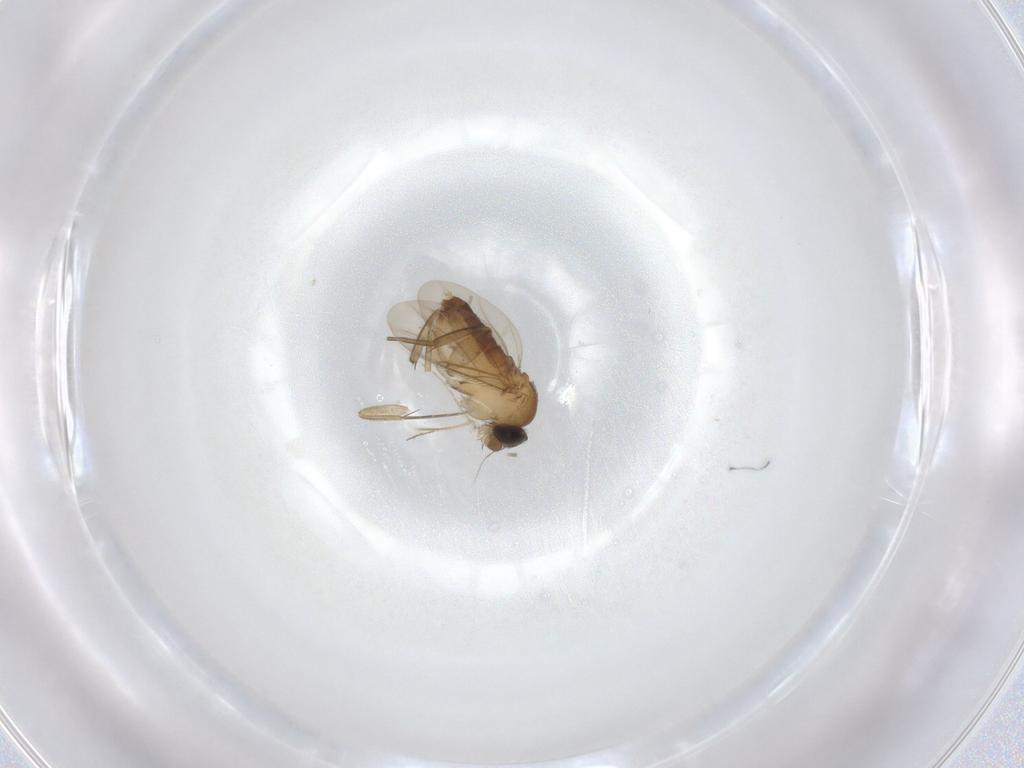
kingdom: Animalia
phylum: Arthropoda
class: Insecta
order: Diptera
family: Phoridae
